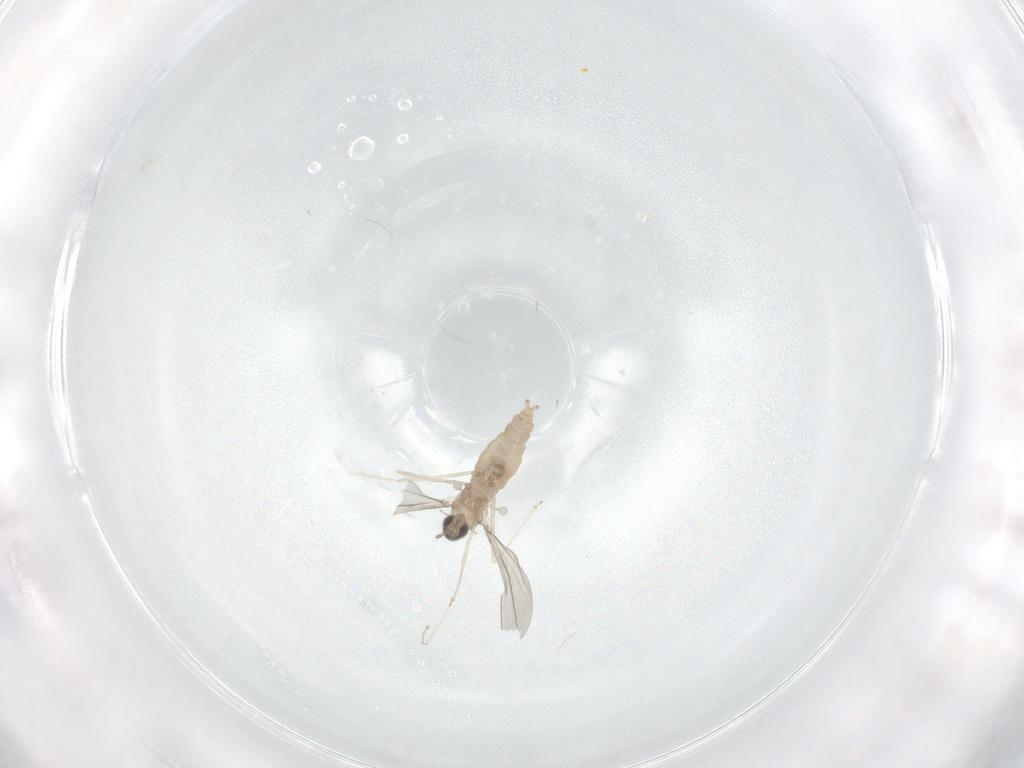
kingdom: Animalia
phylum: Arthropoda
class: Insecta
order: Diptera
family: Cecidomyiidae
